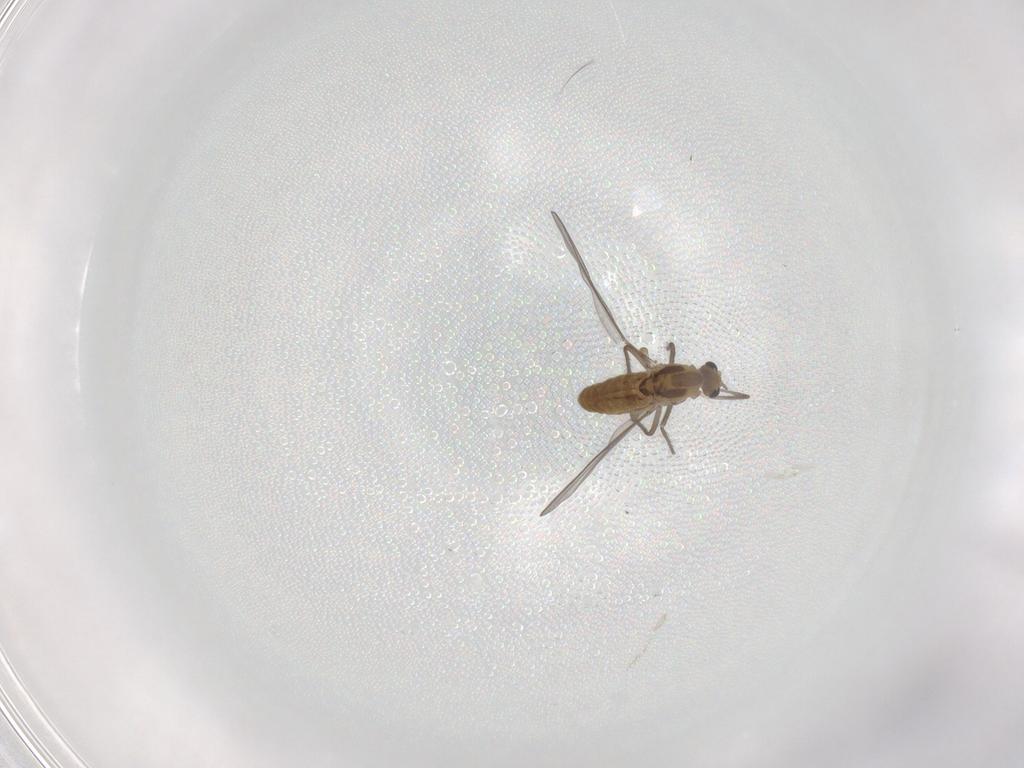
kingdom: Animalia
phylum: Arthropoda
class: Insecta
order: Diptera
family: Chironomidae
